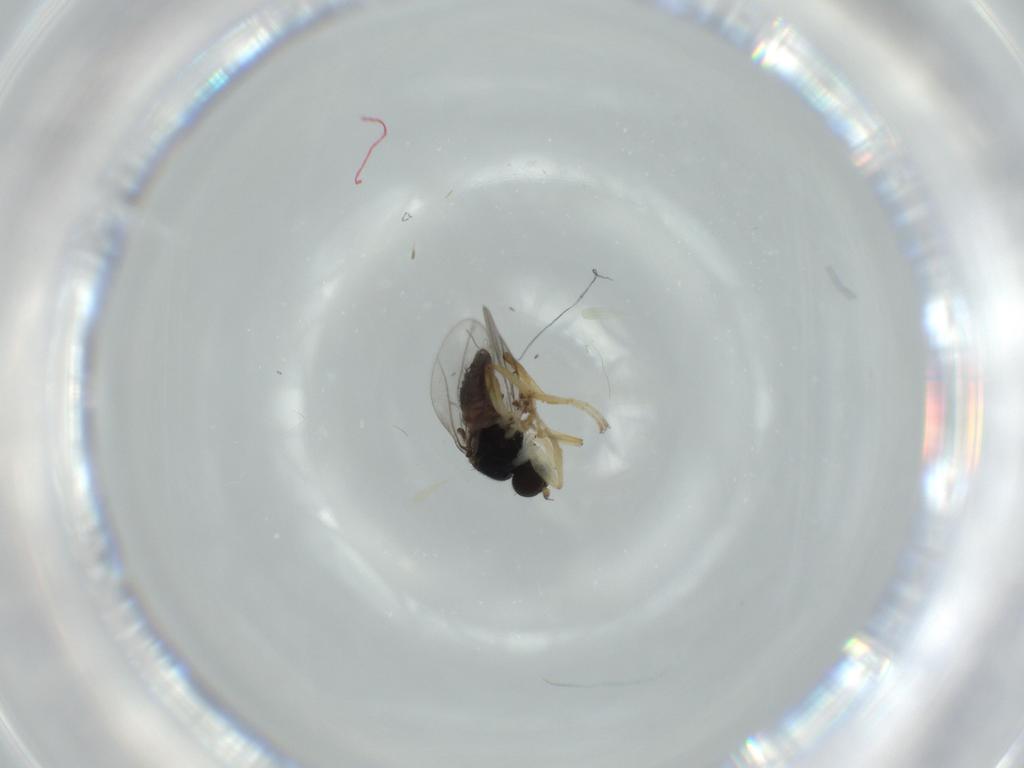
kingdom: Animalia
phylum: Arthropoda
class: Insecta
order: Diptera
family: Hybotidae
